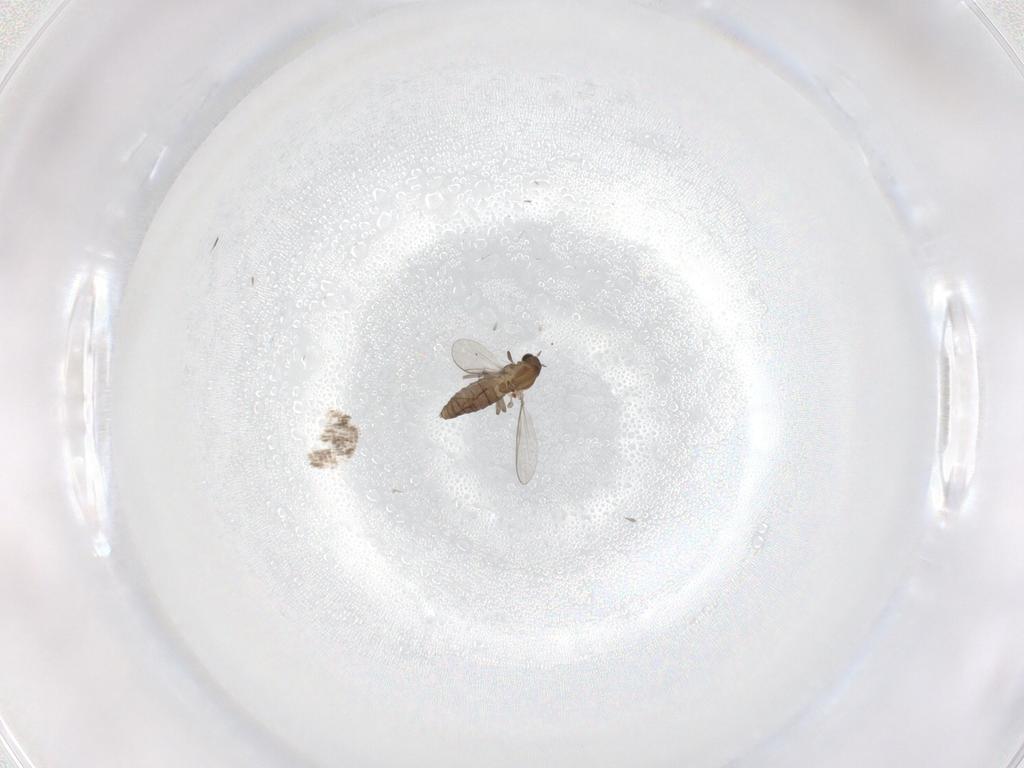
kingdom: Animalia
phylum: Arthropoda
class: Insecta
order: Diptera
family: Chironomidae
